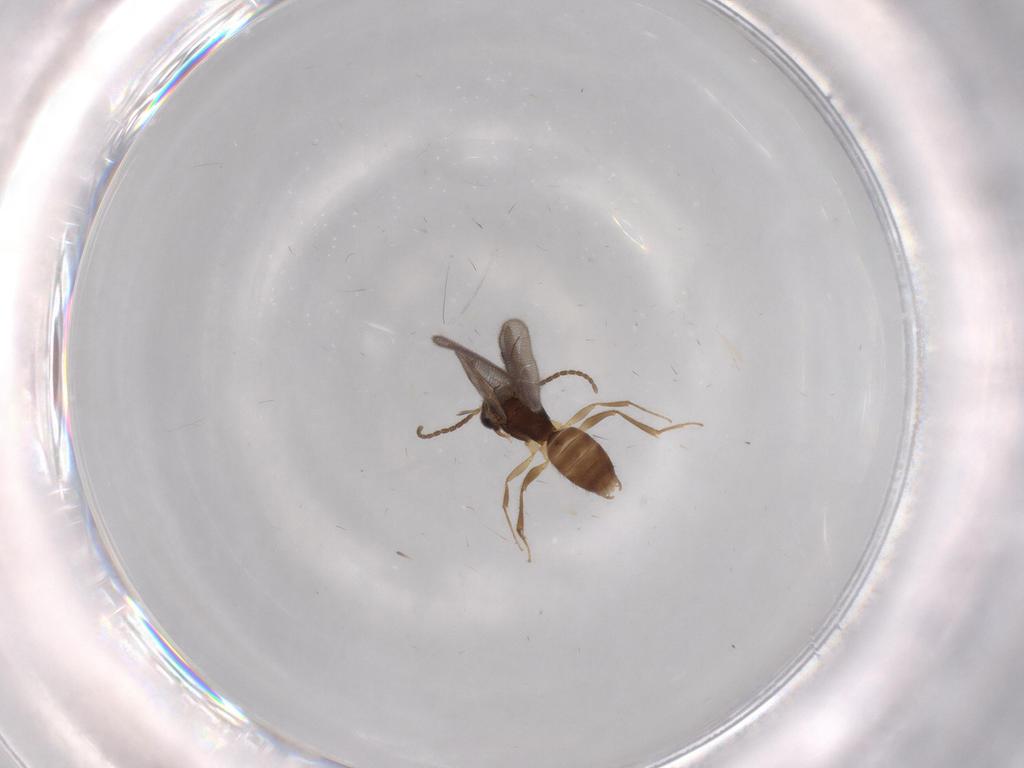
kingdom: Animalia
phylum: Arthropoda
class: Insecta
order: Hymenoptera
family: Bethylidae
